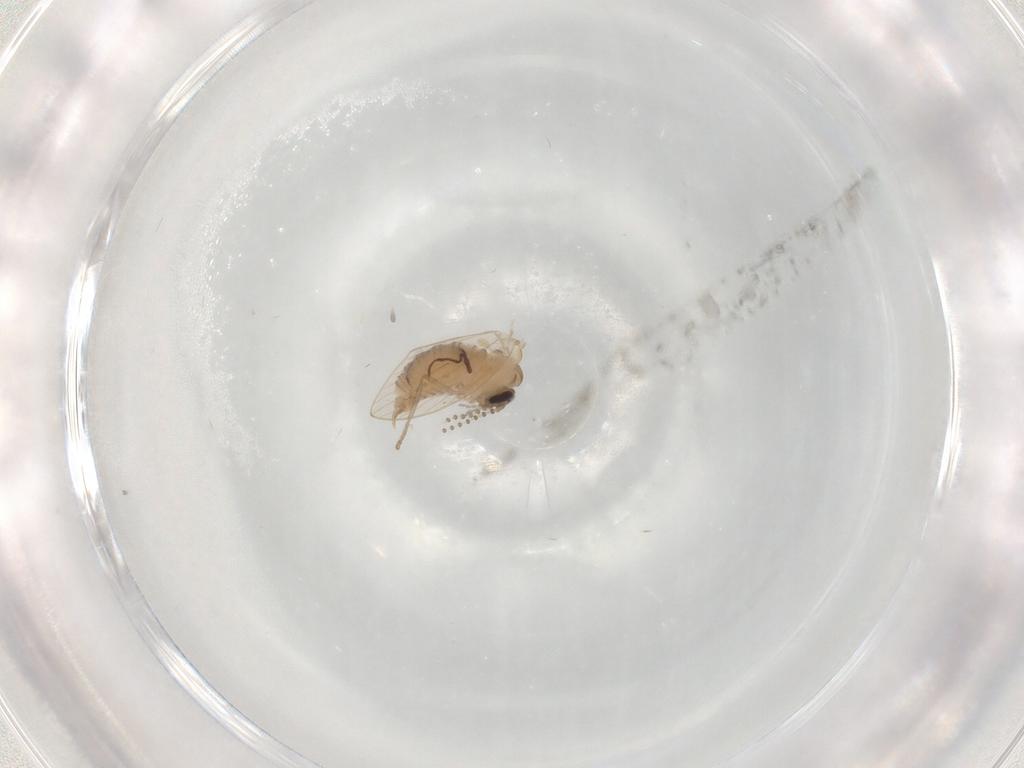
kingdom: Animalia
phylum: Arthropoda
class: Insecta
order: Diptera
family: Psychodidae
